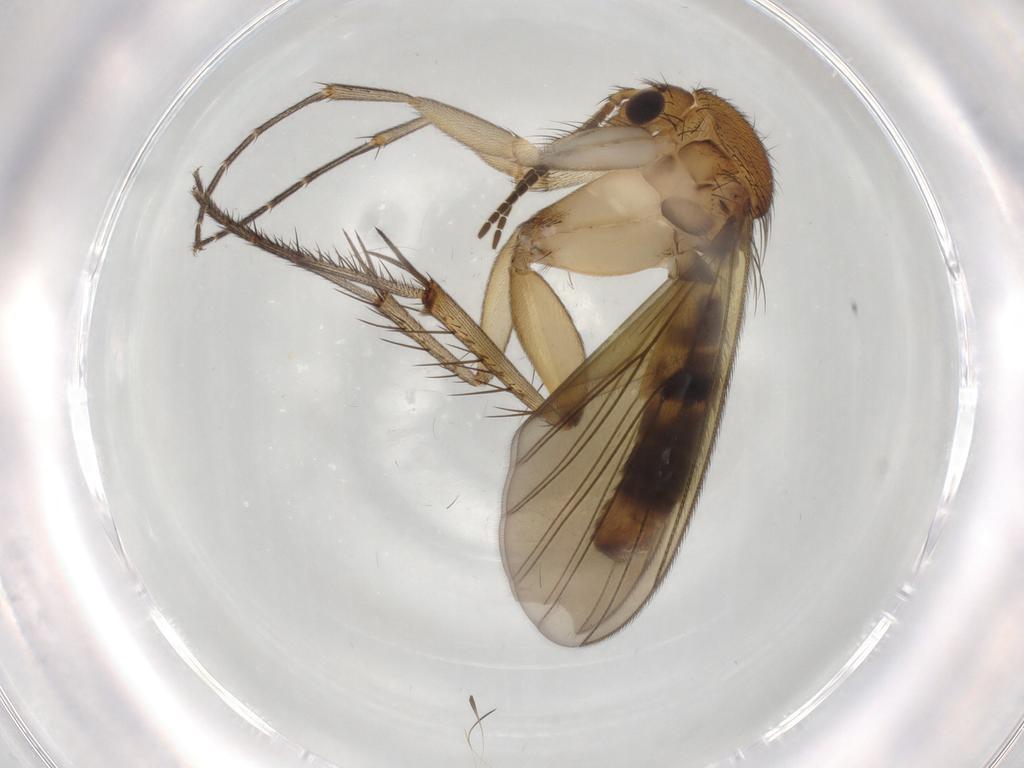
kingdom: Animalia
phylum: Arthropoda
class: Insecta
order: Diptera
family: Mycetophilidae
